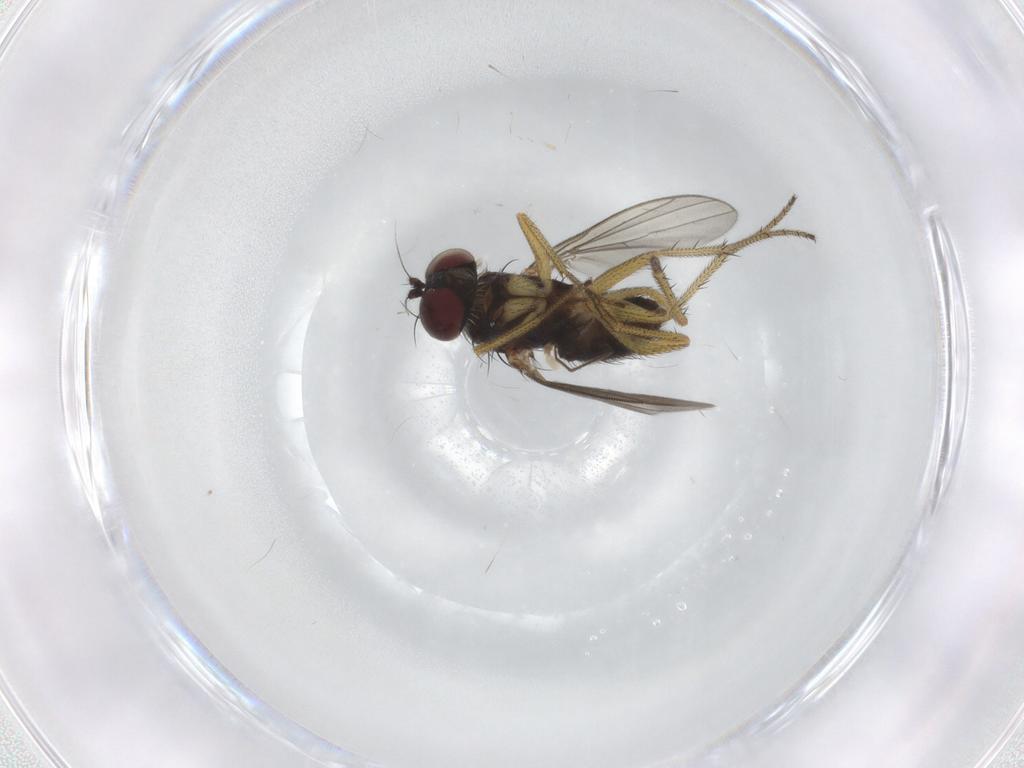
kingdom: Animalia
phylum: Arthropoda
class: Insecta
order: Diptera
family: Dolichopodidae
